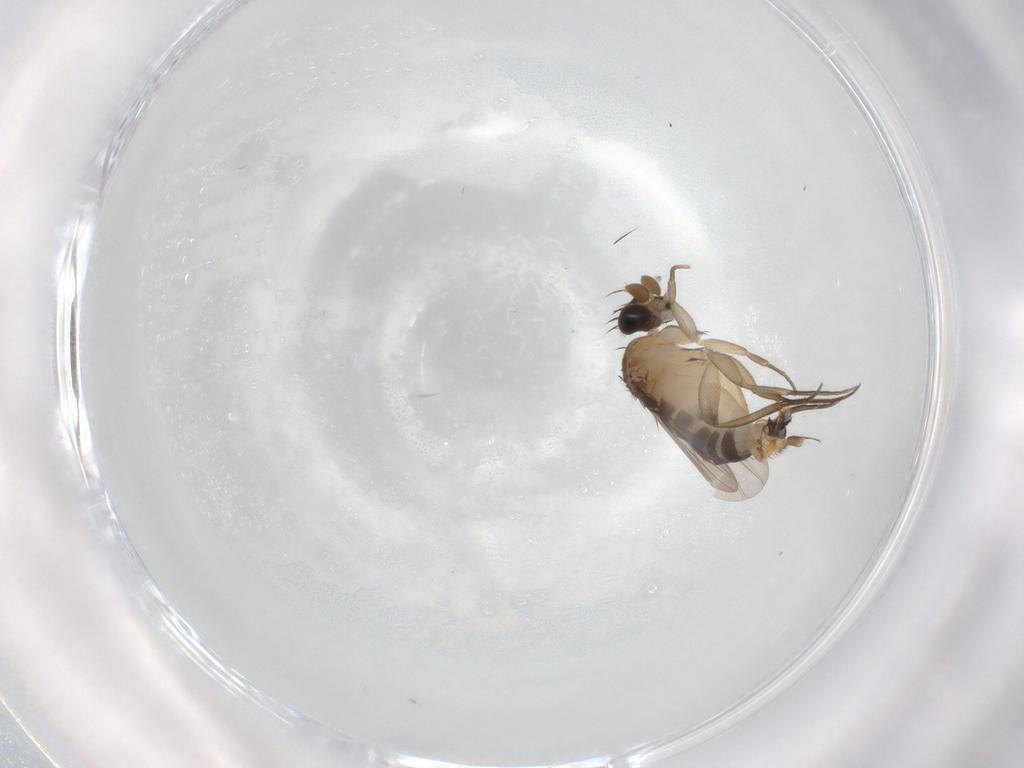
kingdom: Animalia
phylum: Arthropoda
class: Insecta
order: Diptera
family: Phoridae
